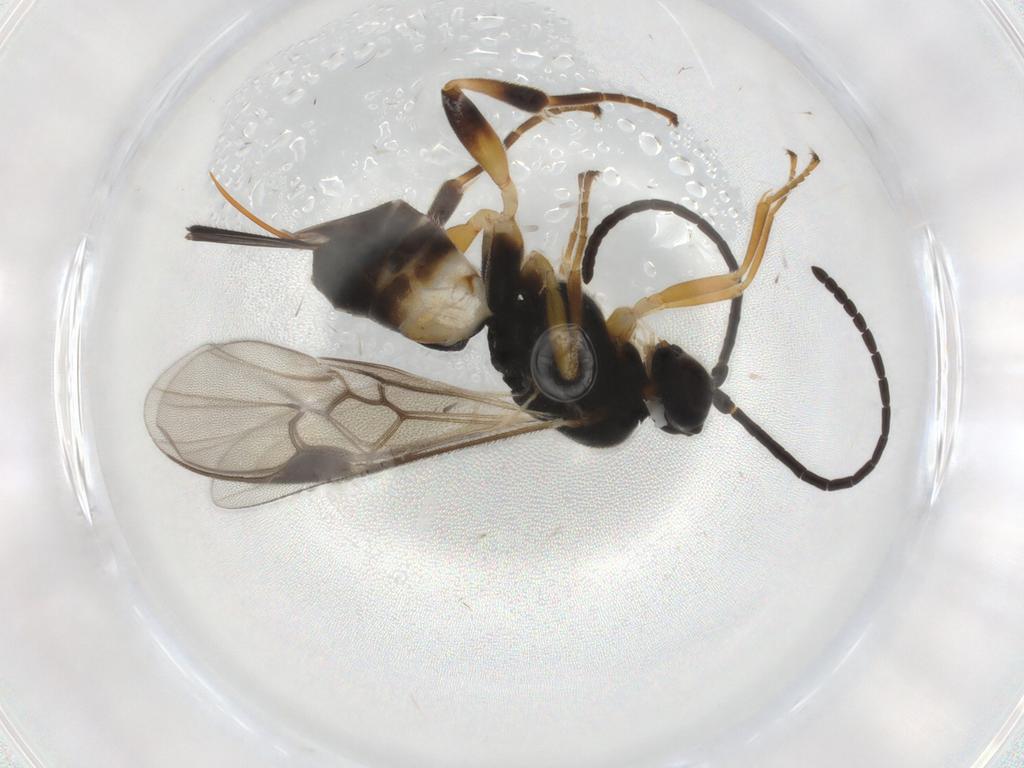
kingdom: Animalia
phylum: Arthropoda
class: Insecta
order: Hymenoptera
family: Braconidae
